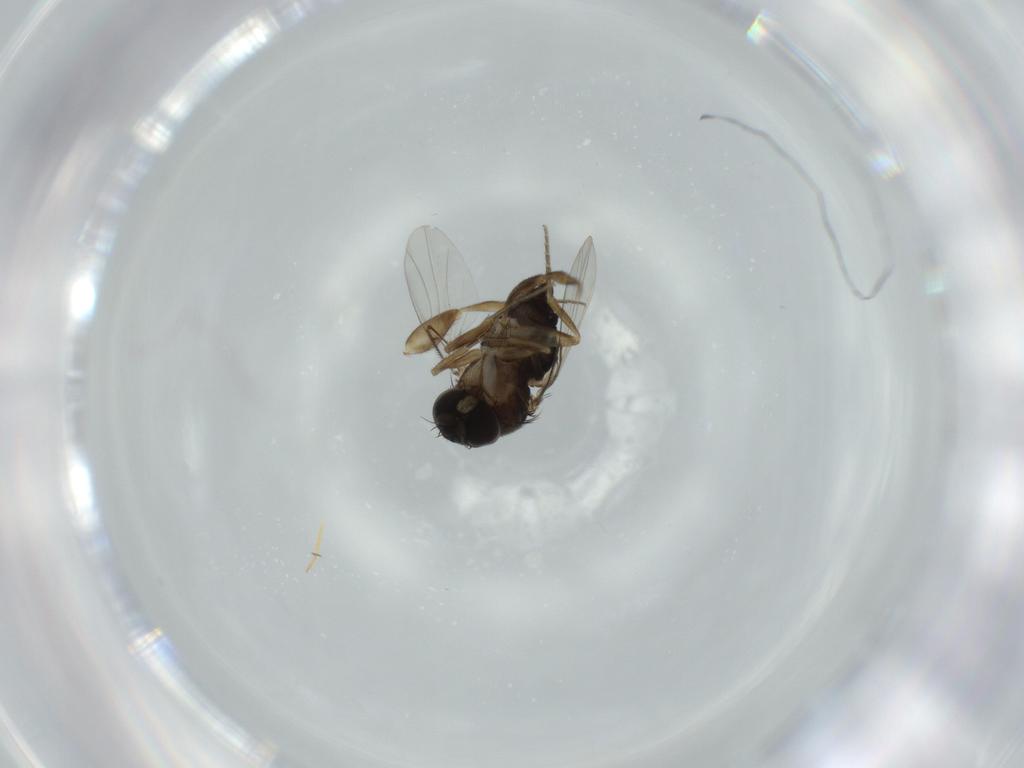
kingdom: Animalia
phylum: Arthropoda
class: Insecta
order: Diptera
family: Phoridae
